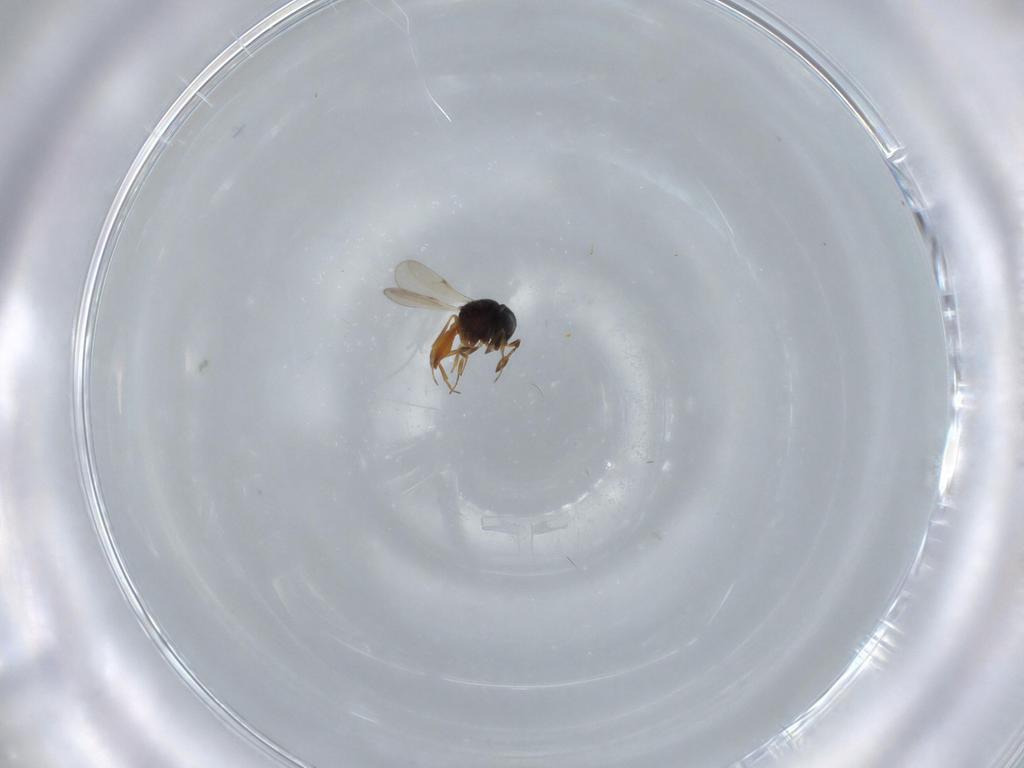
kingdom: Animalia
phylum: Arthropoda
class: Insecta
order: Hymenoptera
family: Scelionidae
